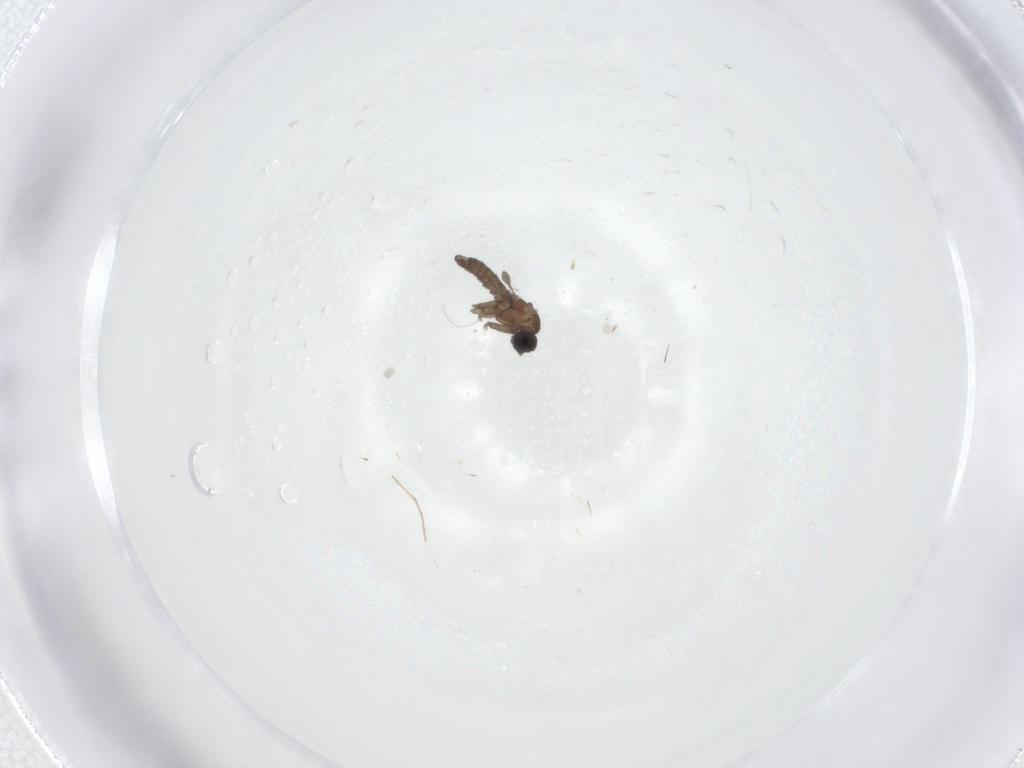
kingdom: Animalia
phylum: Arthropoda
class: Insecta
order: Diptera
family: Sciaridae
